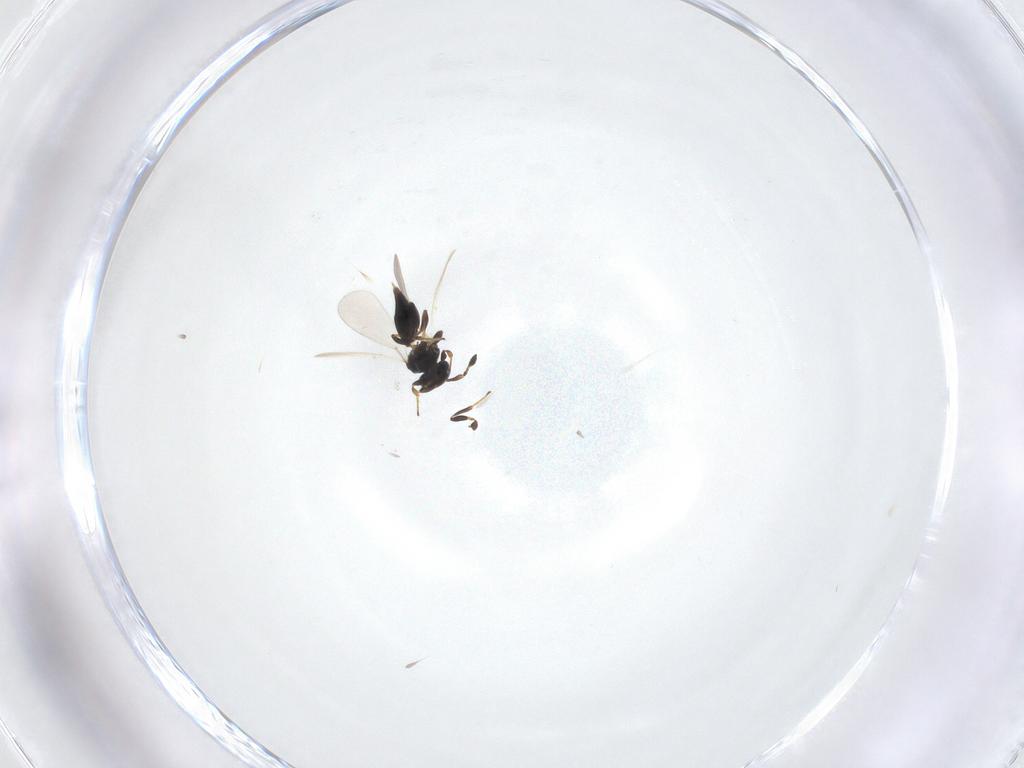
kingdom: Animalia
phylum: Arthropoda
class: Insecta
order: Hymenoptera
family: Platygastridae
